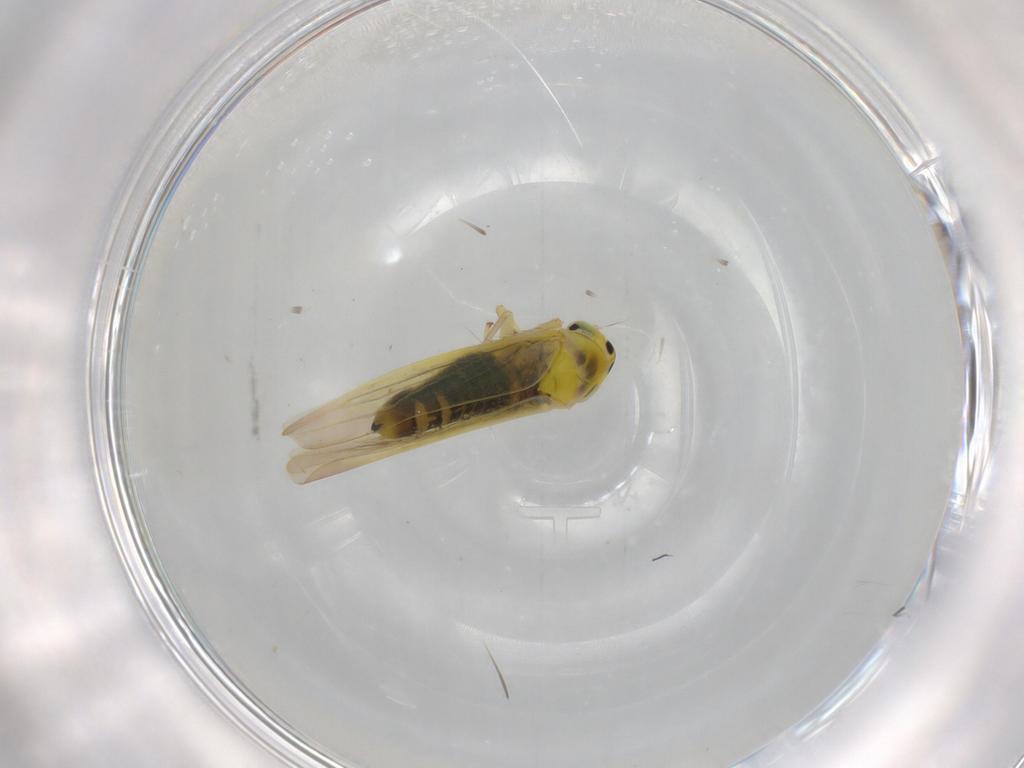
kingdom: Animalia
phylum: Arthropoda
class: Insecta
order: Hemiptera
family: Cicadellidae
